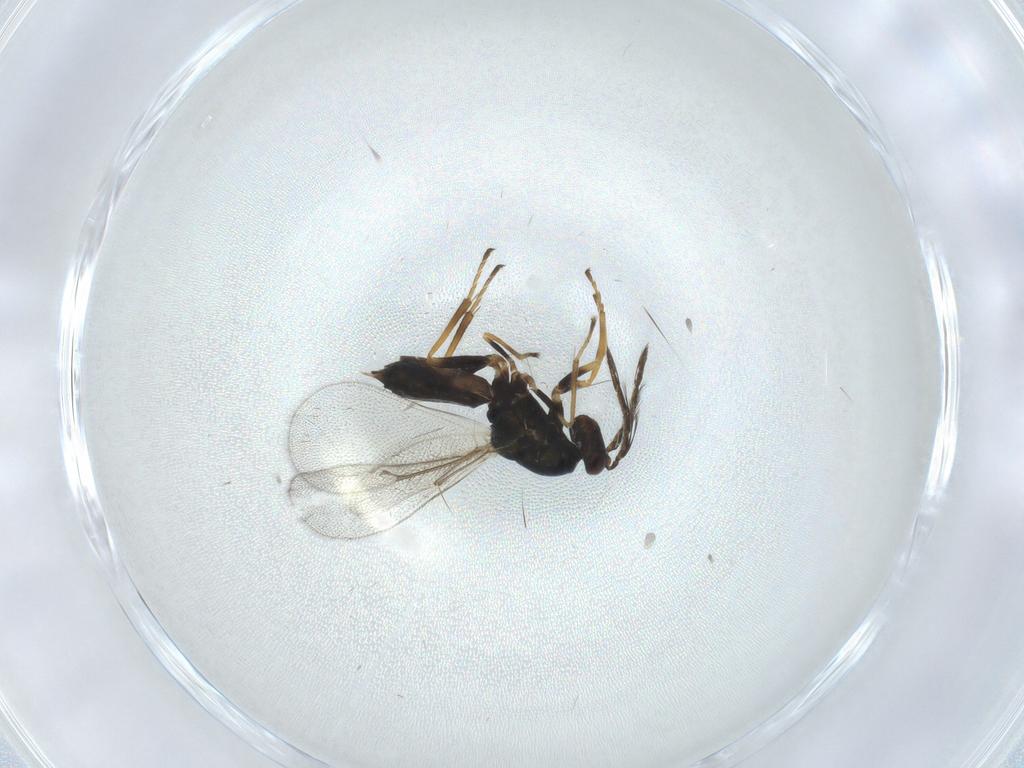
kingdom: Animalia
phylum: Arthropoda
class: Insecta
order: Hymenoptera
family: Eulophidae
